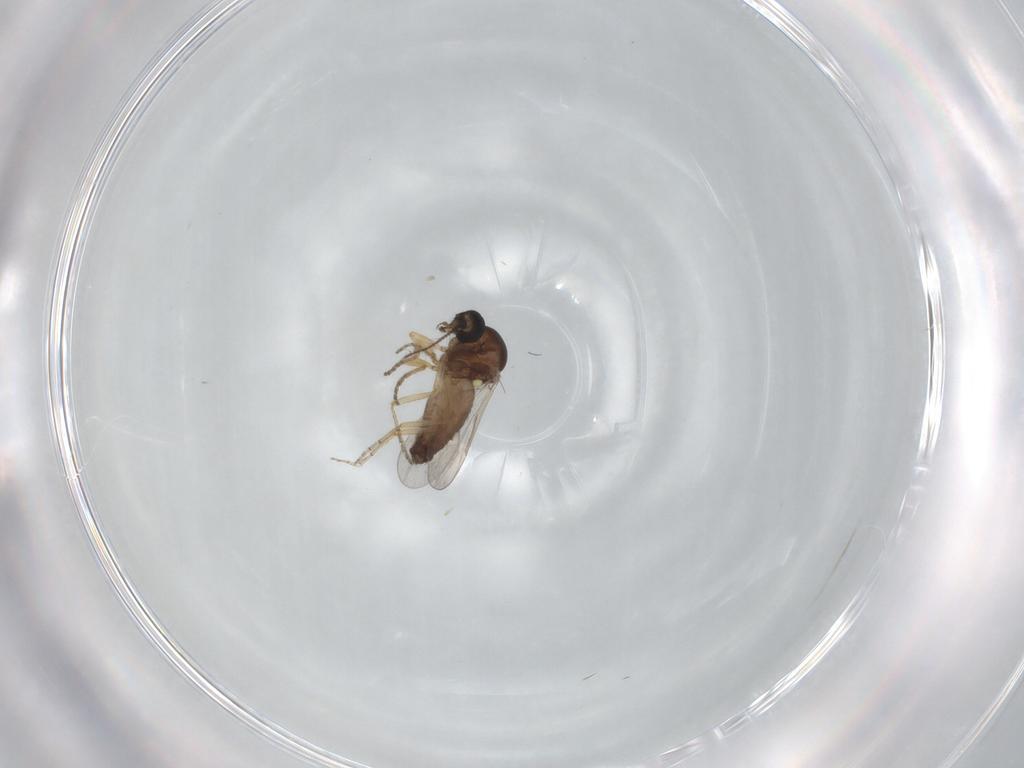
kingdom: Animalia
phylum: Arthropoda
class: Insecta
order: Diptera
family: Ceratopogonidae
